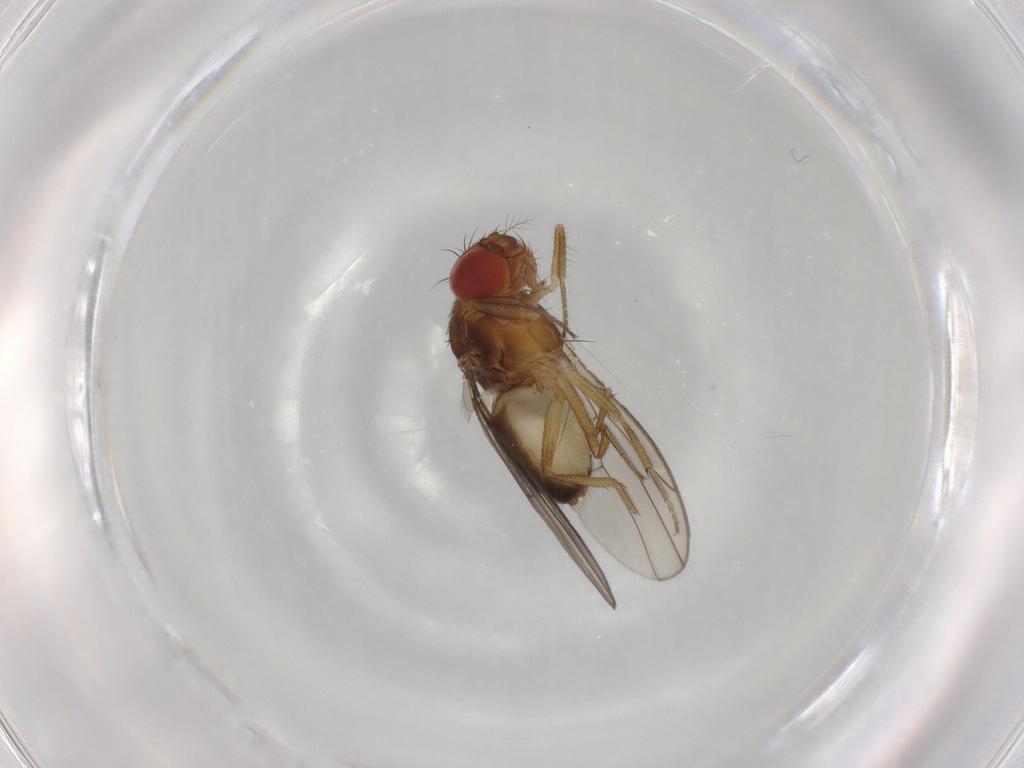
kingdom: Animalia
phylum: Arthropoda
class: Insecta
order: Diptera
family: Drosophilidae
